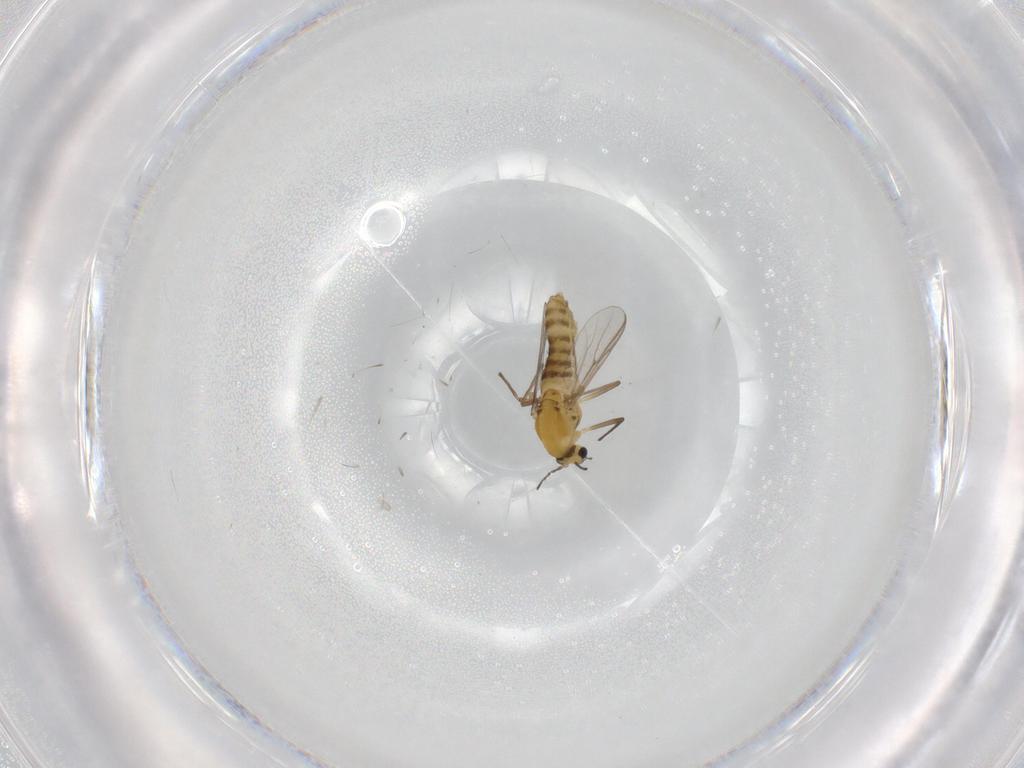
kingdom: Animalia
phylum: Arthropoda
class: Insecta
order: Diptera
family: Chironomidae
